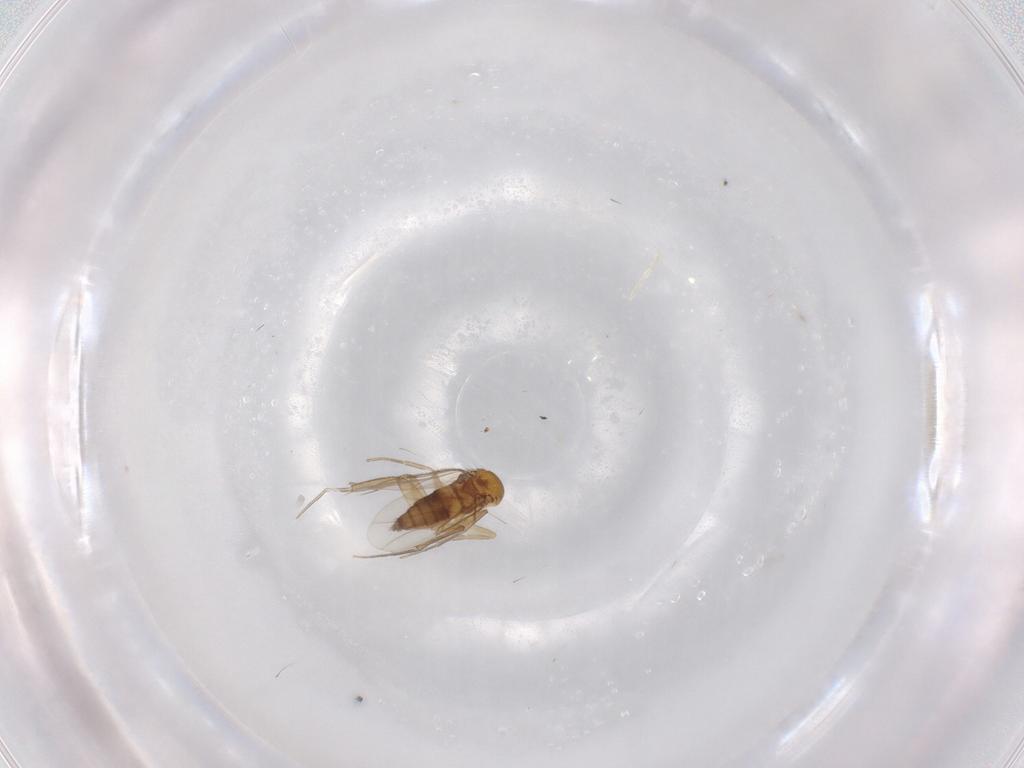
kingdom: Animalia
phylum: Arthropoda
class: Insecta
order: Diptera
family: Phoridae
